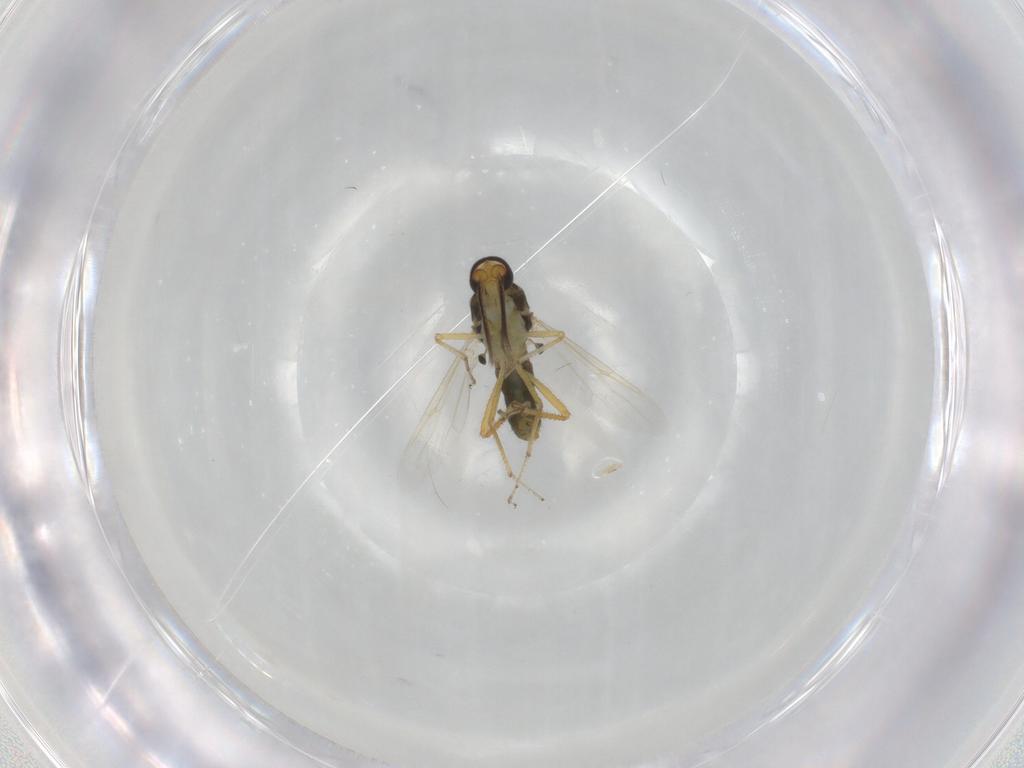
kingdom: Animalia
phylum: Arthropoda
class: Insecta
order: Diptera
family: Ceratopogonidae
